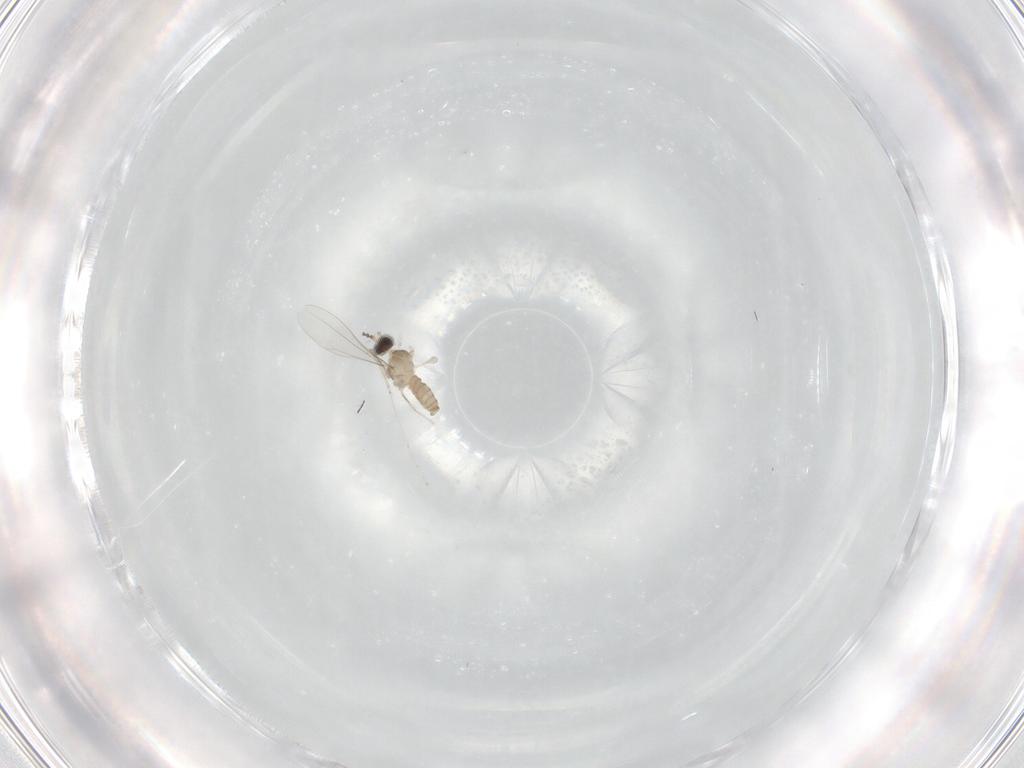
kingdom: Animalia
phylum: Arthropoda
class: Insecta
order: Diptera
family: Cecidomyiidae
